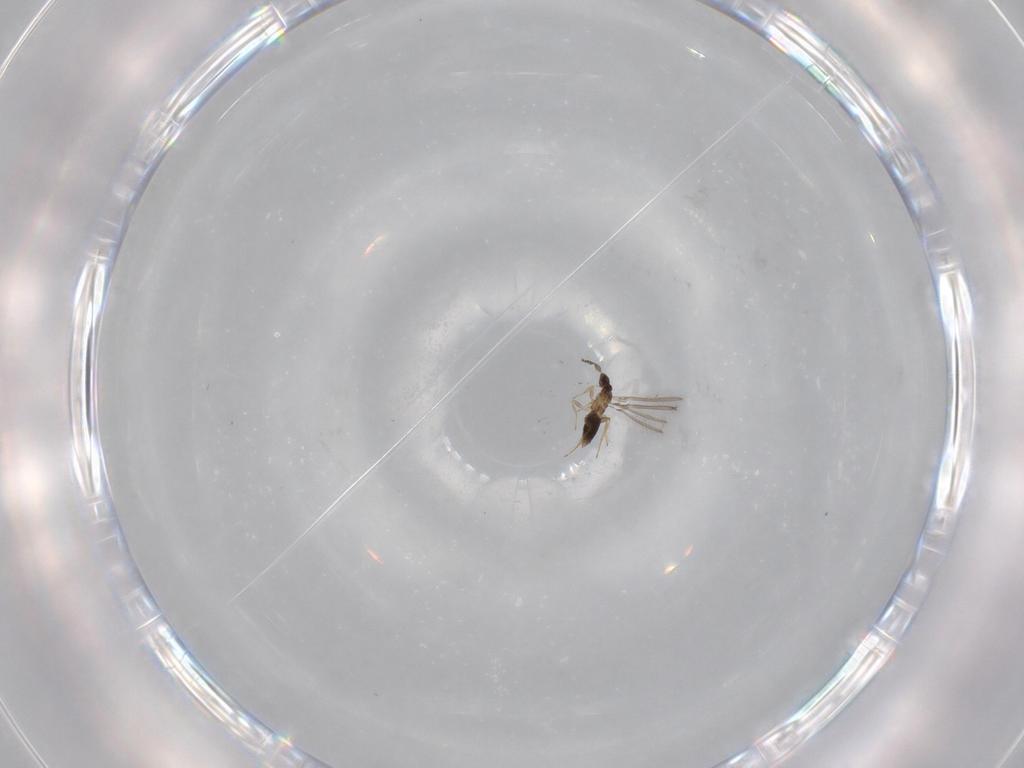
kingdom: Animalia
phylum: Arthropoda
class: Insecta
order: Hymenoptera
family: Mymaridae
